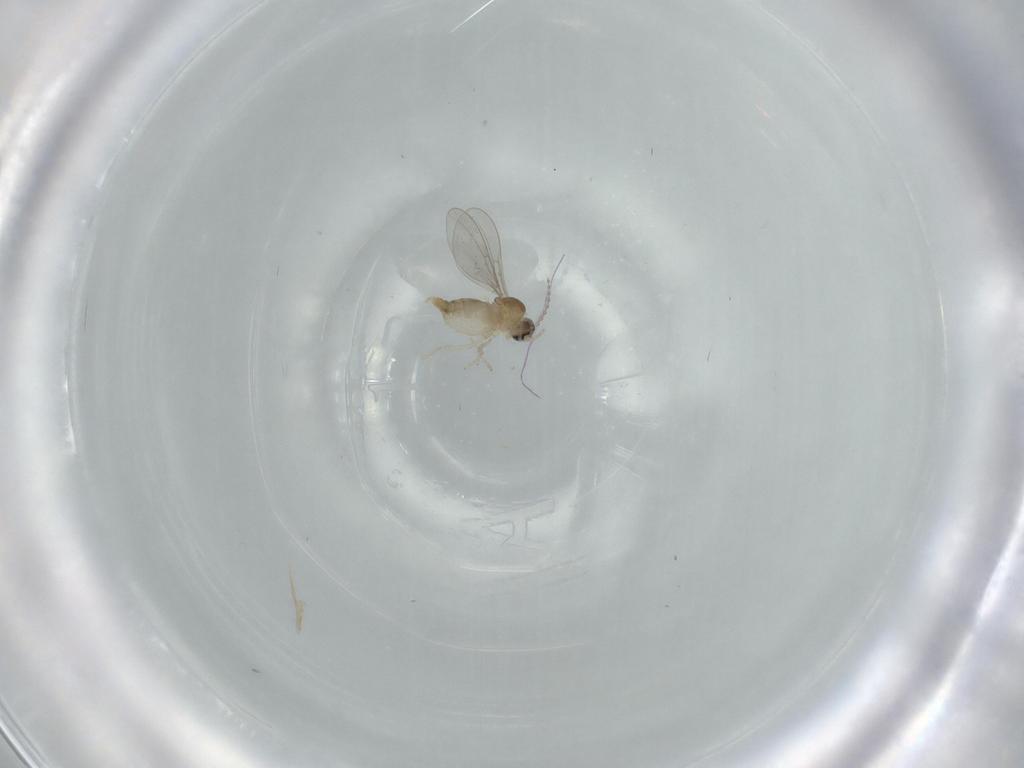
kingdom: Animalia
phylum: Arthropoda
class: Insecta
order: Diptera
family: Cecidomyiidae
